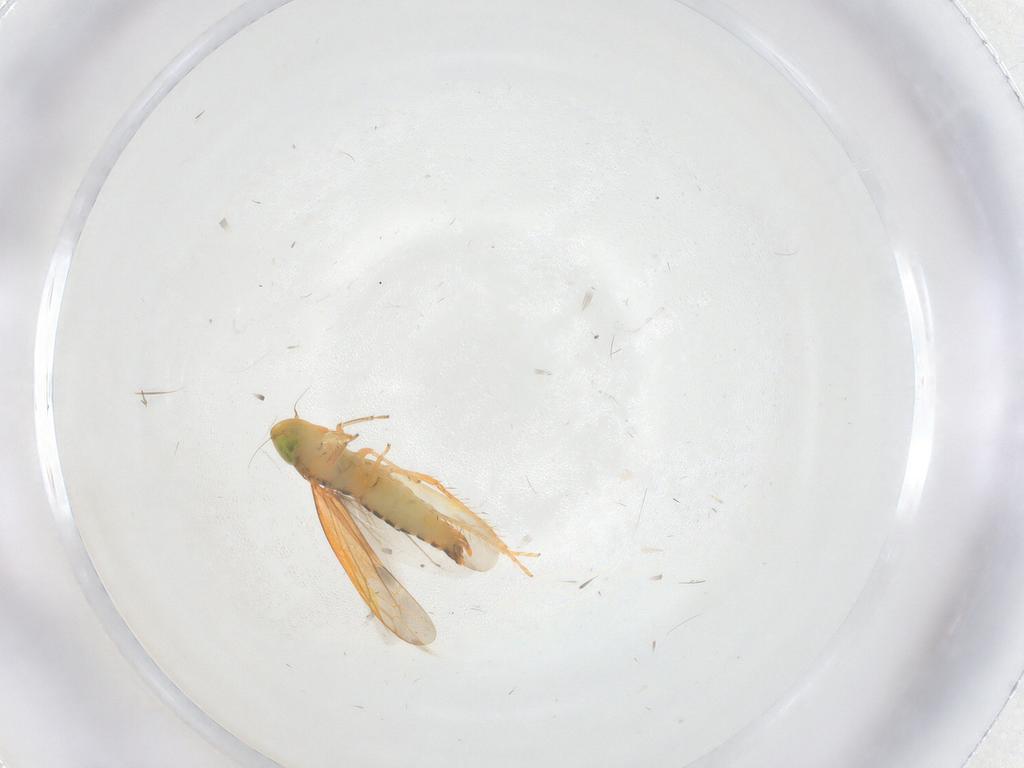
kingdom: Animalia
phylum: Arthropoda
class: Insecta
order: Hemiptera
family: Cicadellidae
